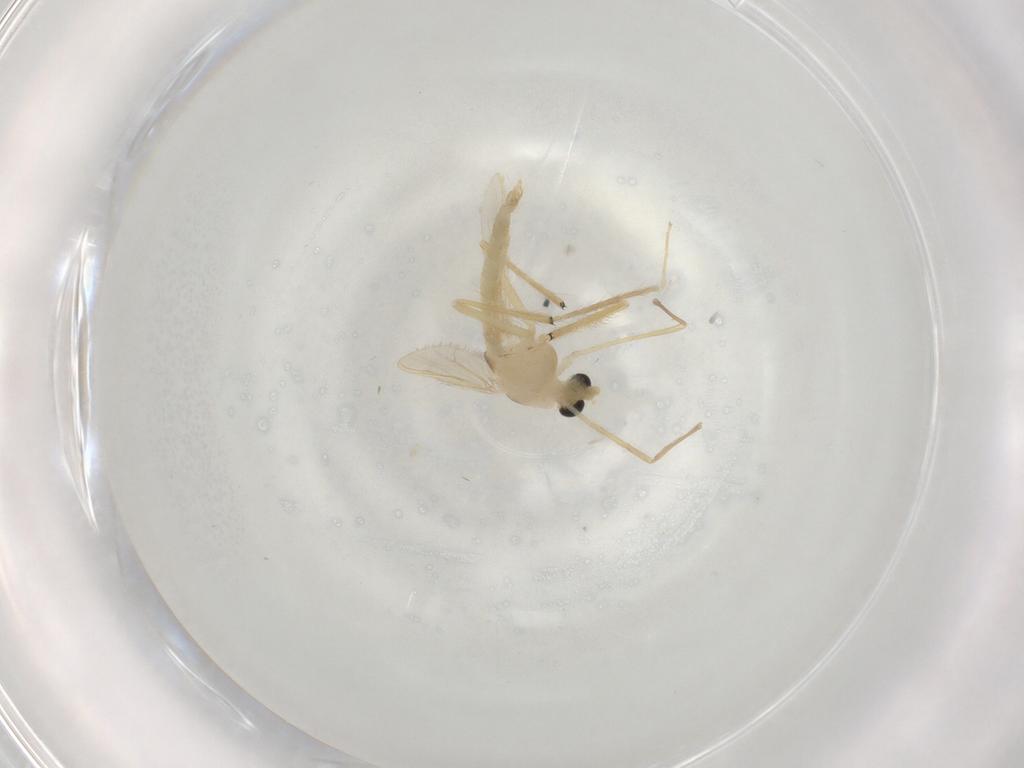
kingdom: Animalia
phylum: Arthropoda
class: Insecta
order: Diptera
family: Chironomidae
